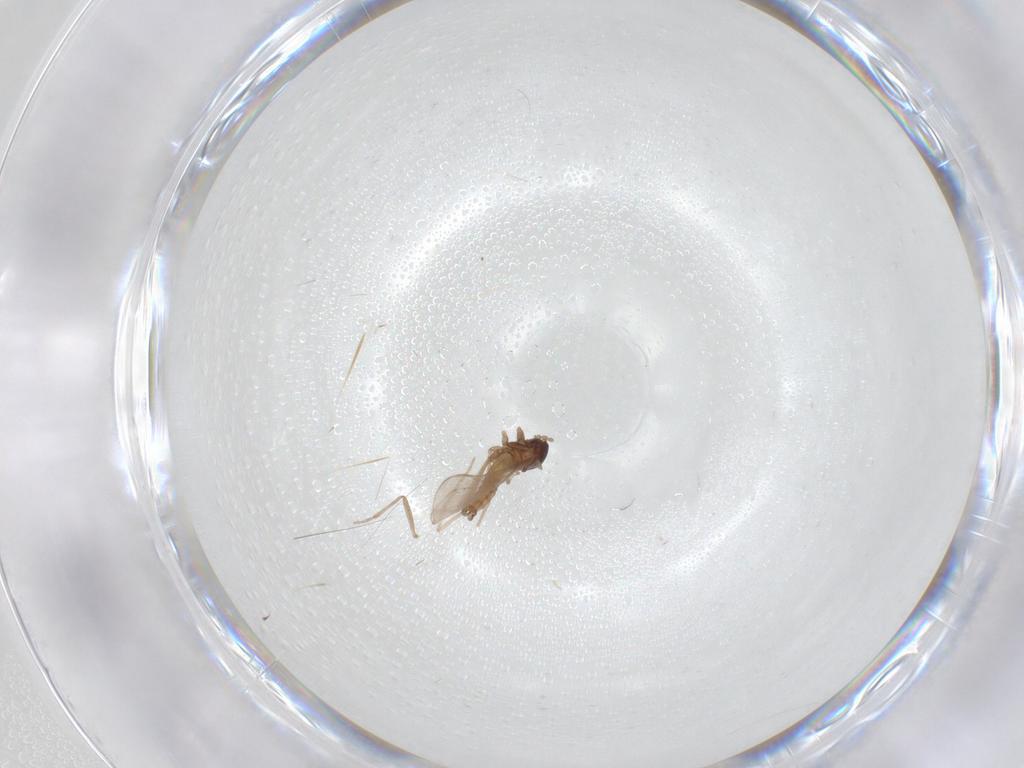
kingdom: Animalia
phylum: Arthropoda
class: Insecta
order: Diptera
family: Cecidomyiidae
